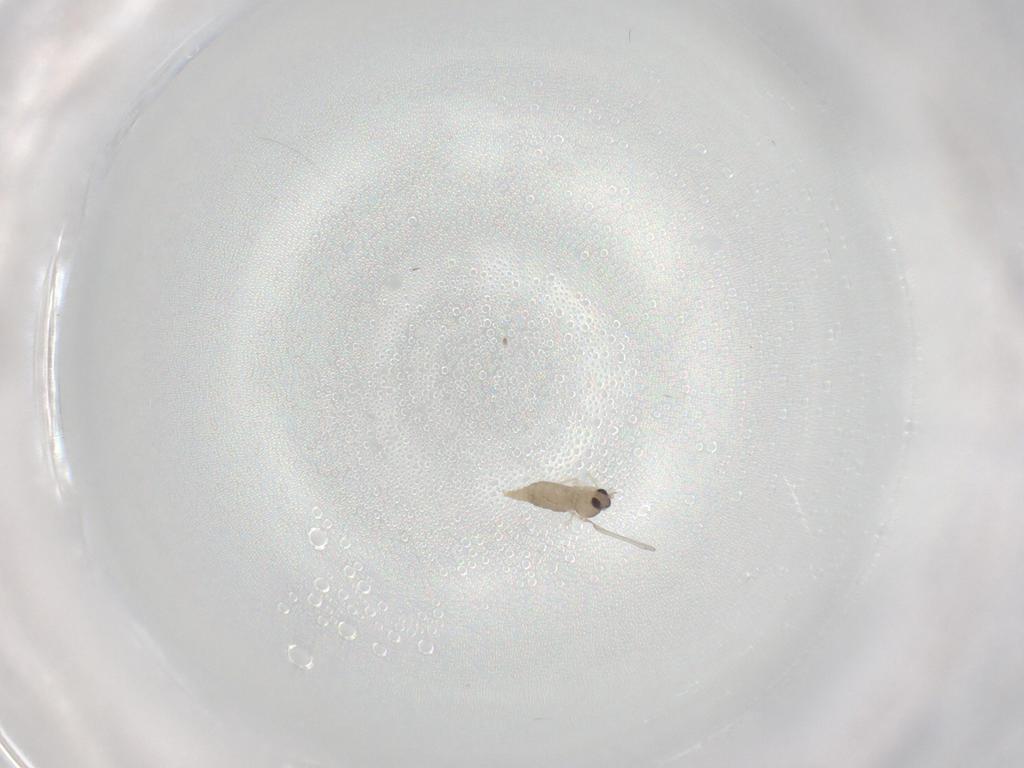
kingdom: Animalia
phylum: Arthropoda
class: Insecta
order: Diptera
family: Cecidomyiidae
